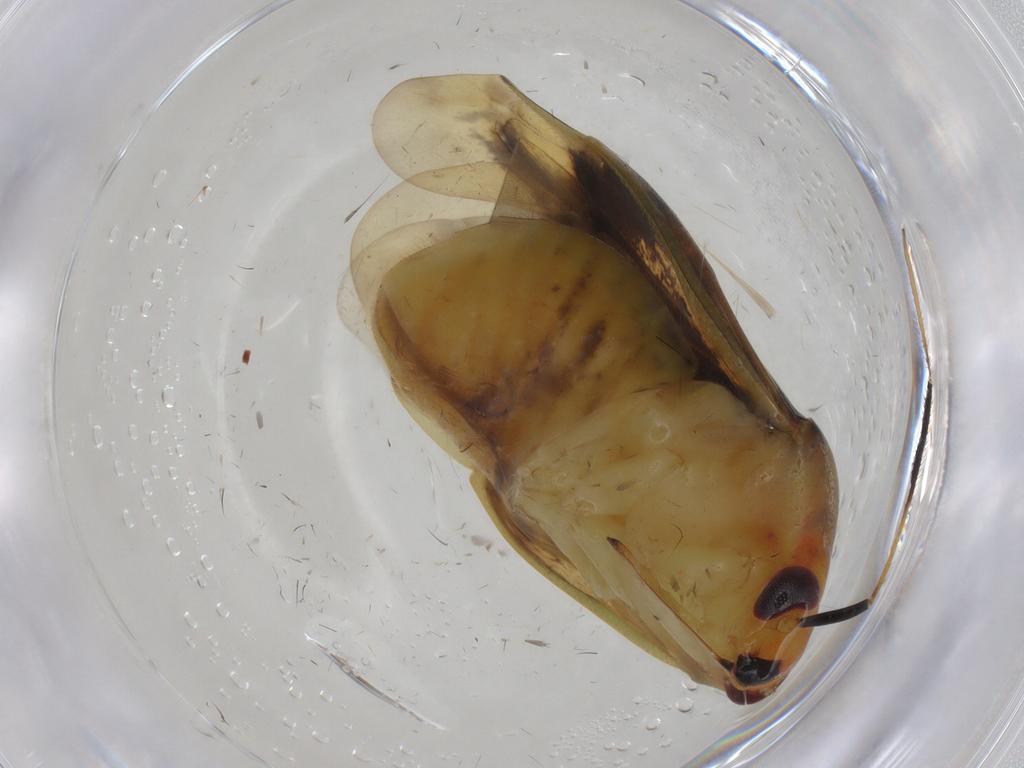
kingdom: Animalia
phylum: Arthropoda
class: Insecta
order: Hemiptera
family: Miridae
